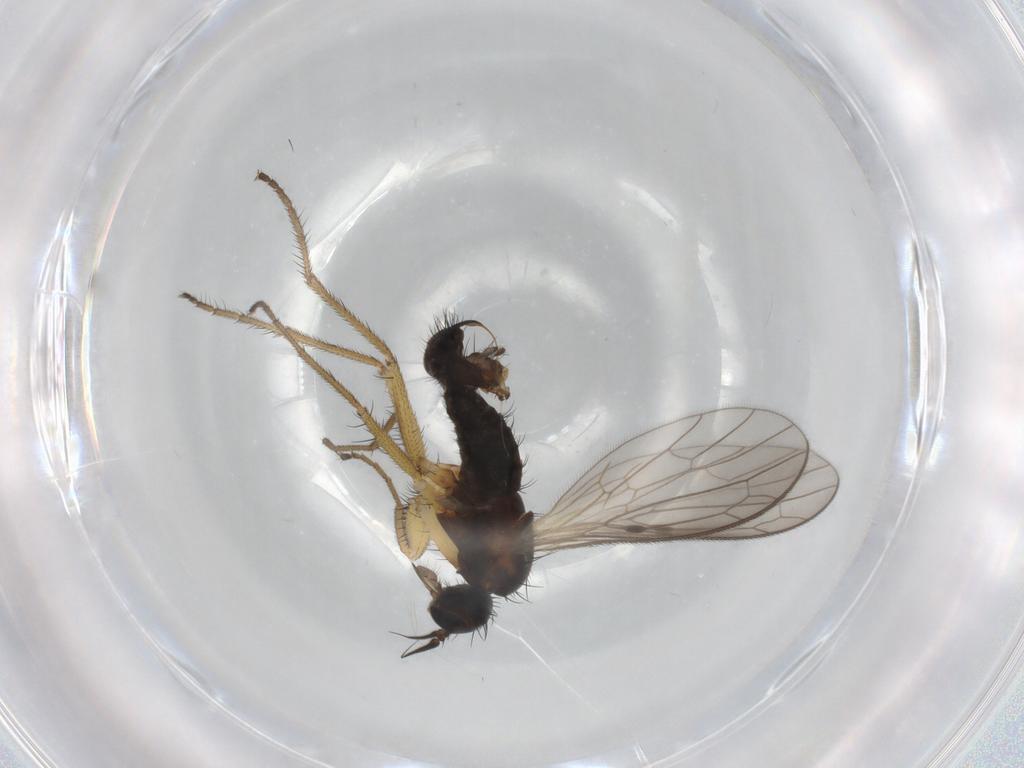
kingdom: Animalia
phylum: Arthropoda
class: Insecta
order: Diptera
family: Empididae
